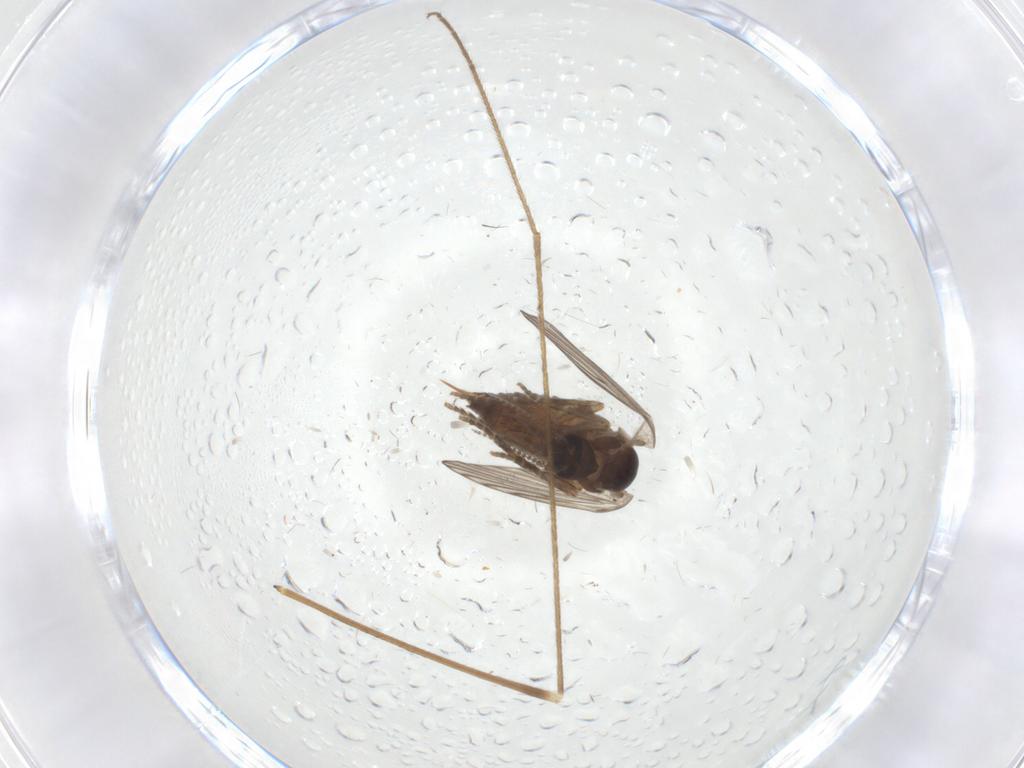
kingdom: Animalia
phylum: Arthropoda
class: Insecta
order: Diptera
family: Limoniidae
